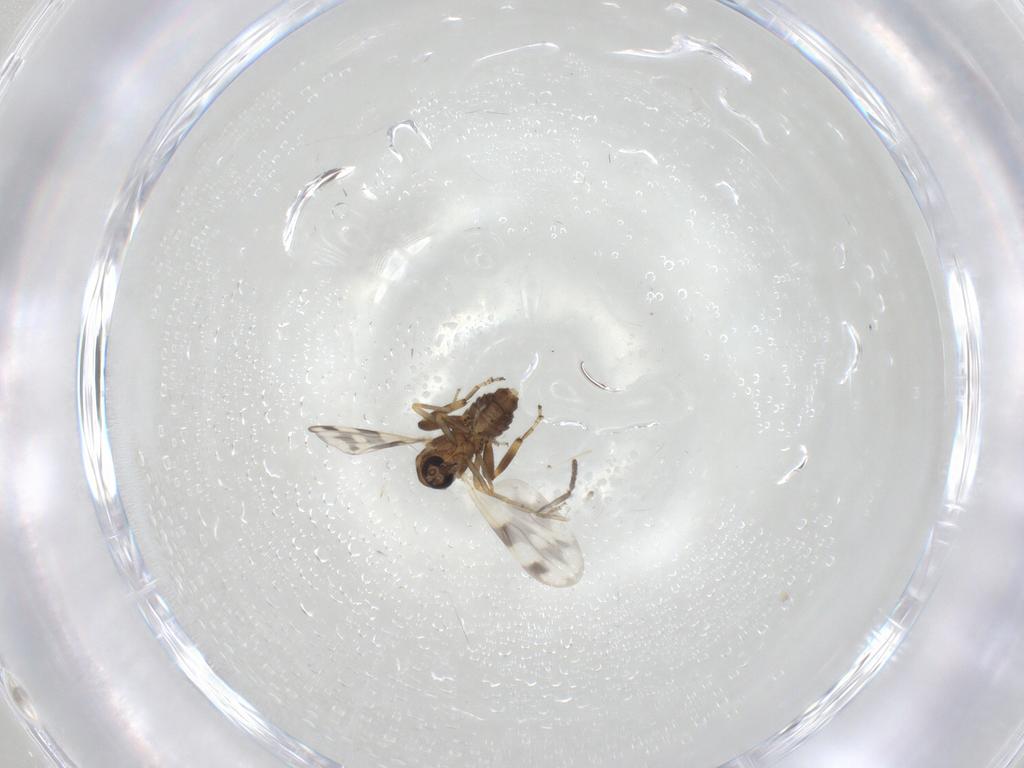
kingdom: Animalia
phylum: Arthropoda
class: Insecta
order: Diptera
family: Ceratopogonidae
